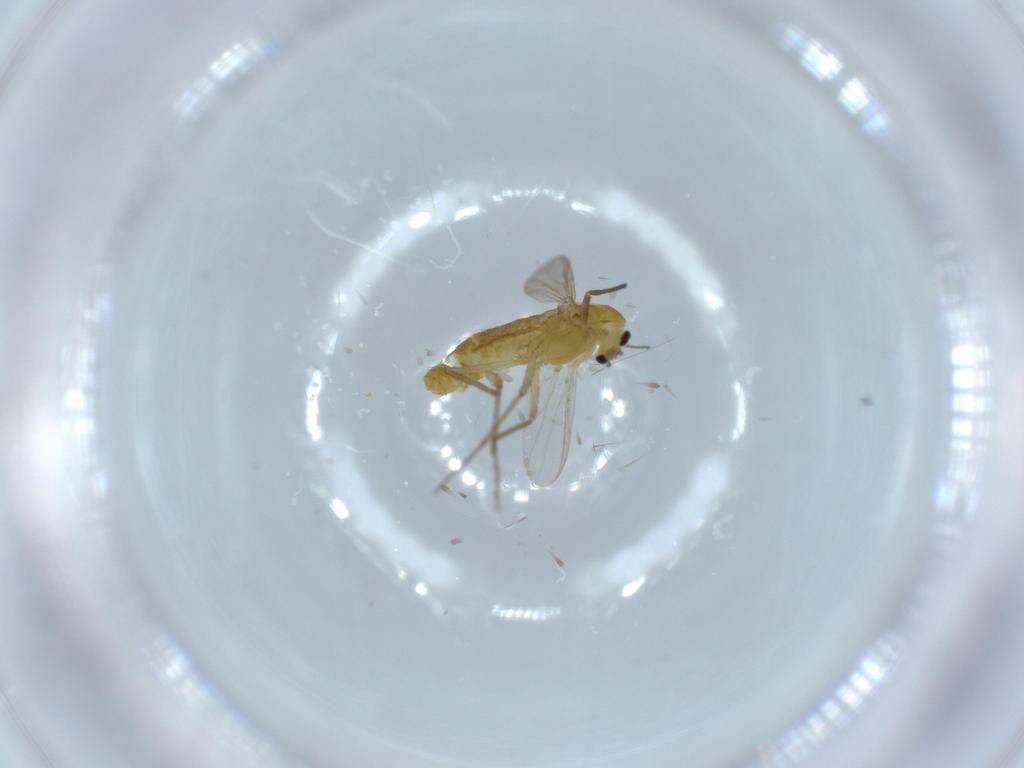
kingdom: Animalia
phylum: Arthropoda
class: Insecta
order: Diptera
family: Chironomidae
